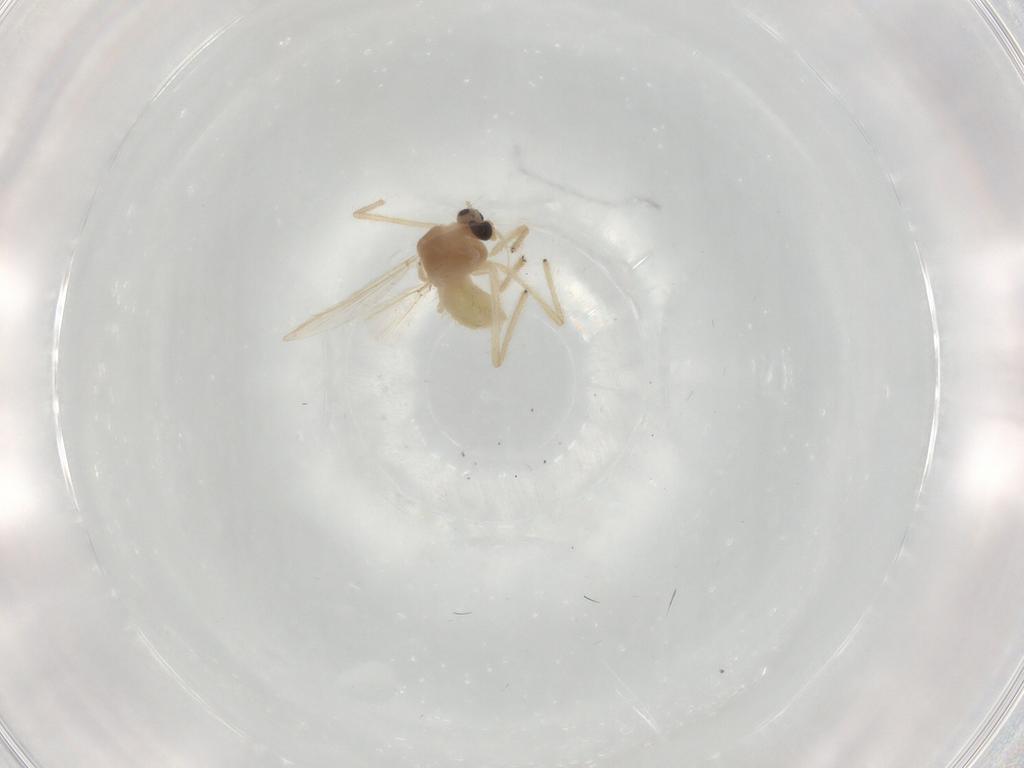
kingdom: Animalia
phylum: Arthropoda
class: Insecta
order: Diptera
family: Chironomidae
